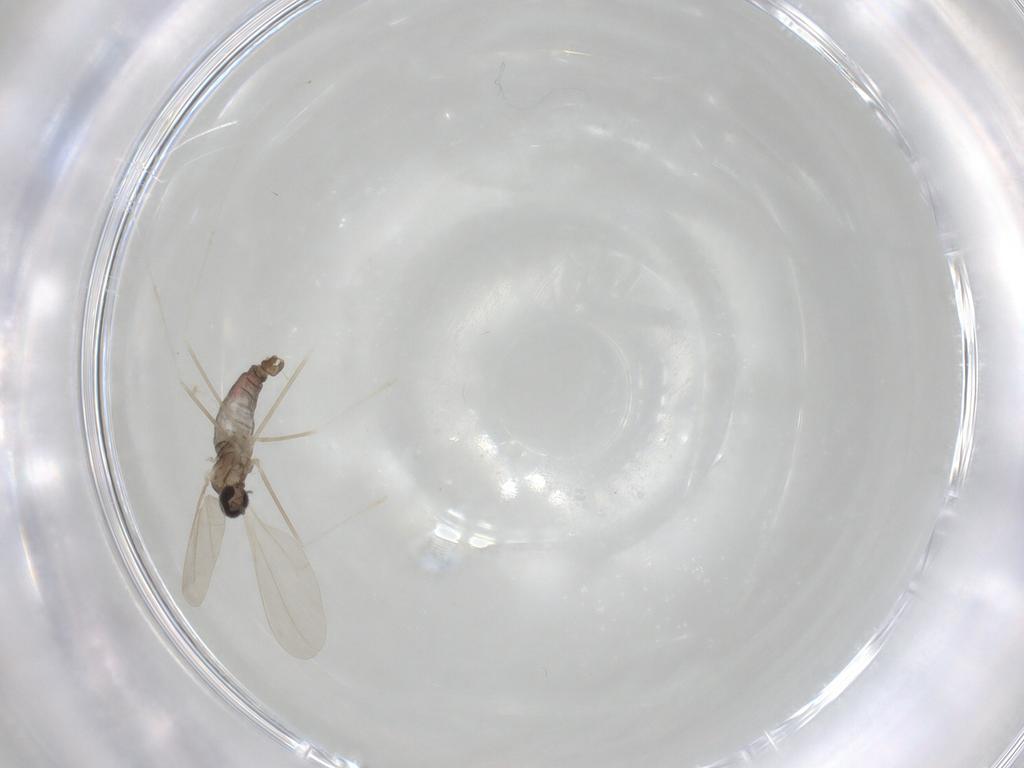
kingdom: Animalia
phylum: Arthropoda
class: Insecta
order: Diptera
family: Cecidomyiidae
